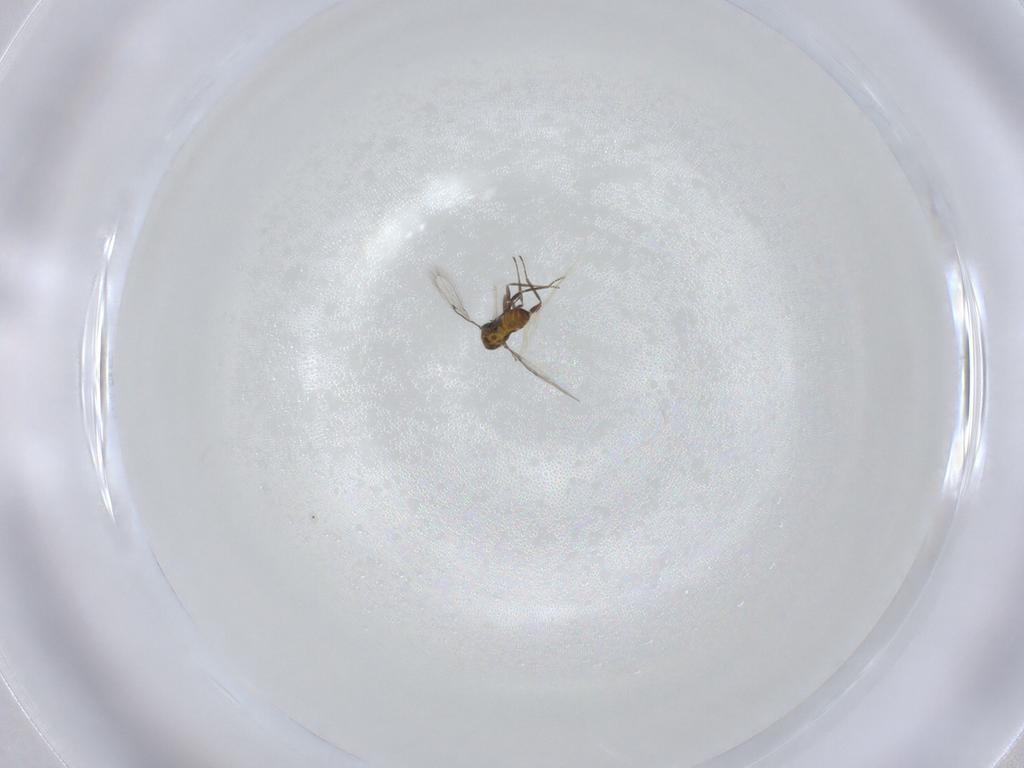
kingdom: Animalia
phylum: Arthropoda
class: Insecta
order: Hymenoptera
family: Trichogrammatidae
